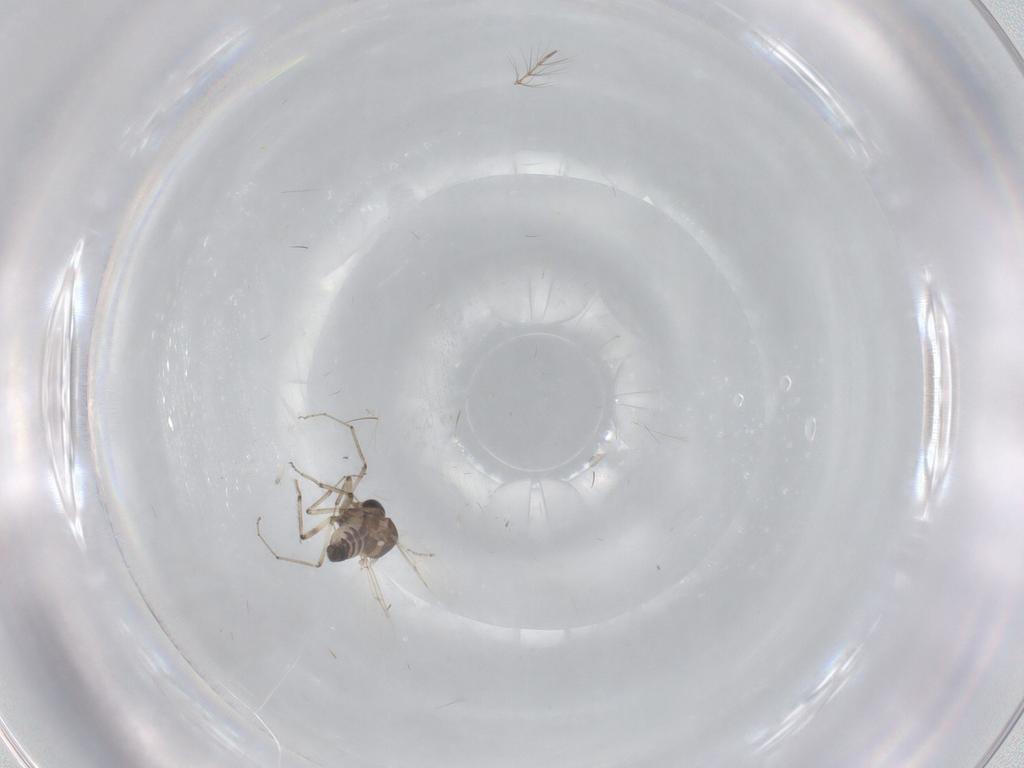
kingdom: Animalia
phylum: Arthropoda
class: Insecta
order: Diptera
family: Ceratopogonidae
